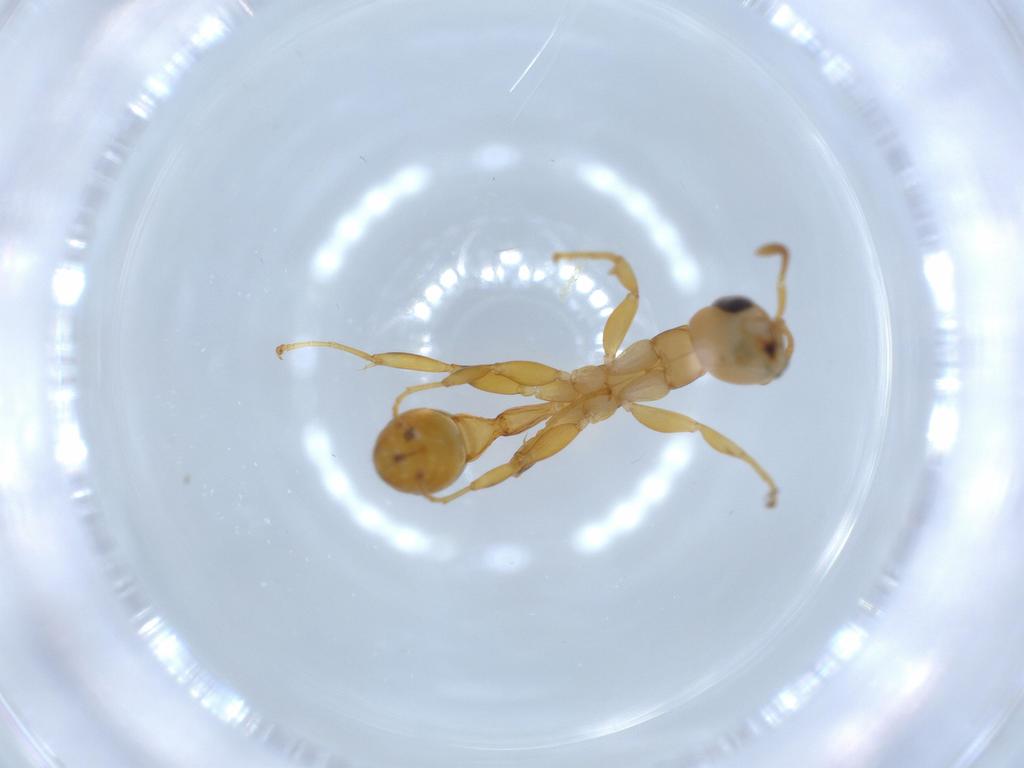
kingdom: Animalia
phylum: Arthropoda
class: Insecta
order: Hymenoptera
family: Formicidae
